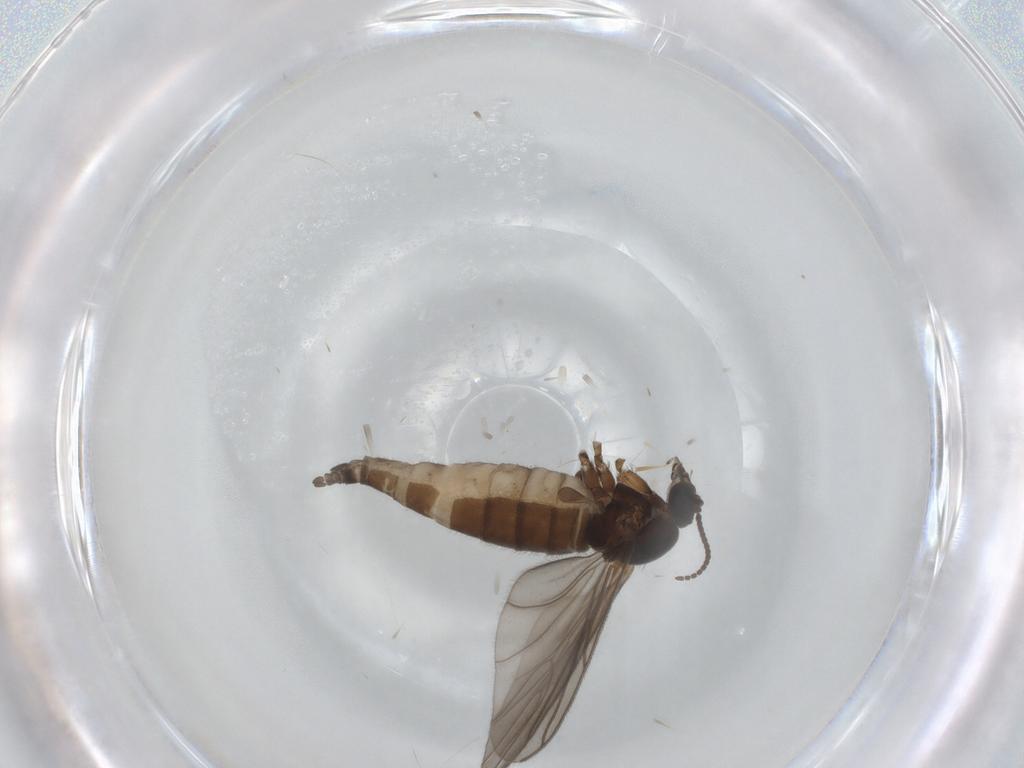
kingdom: Animalia
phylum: Arthropoda
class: Insecta
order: Diptera
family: Sciaridae
